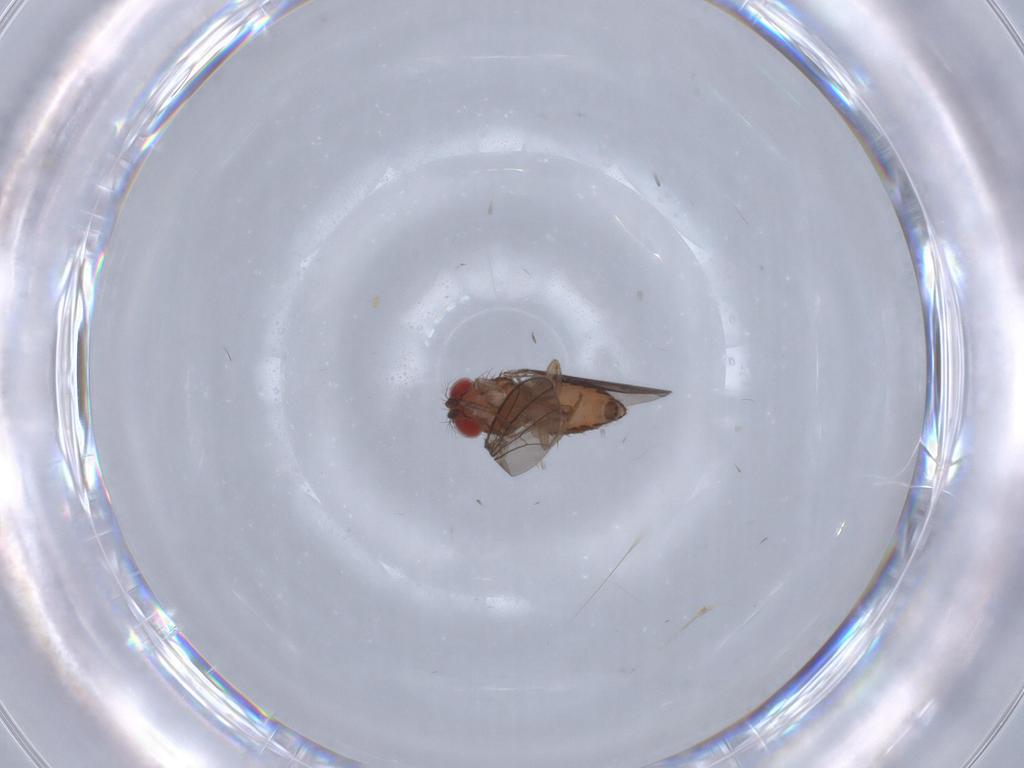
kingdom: Animalia
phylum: Arthropoda
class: Insecta
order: Diptera
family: Drosophilidae
